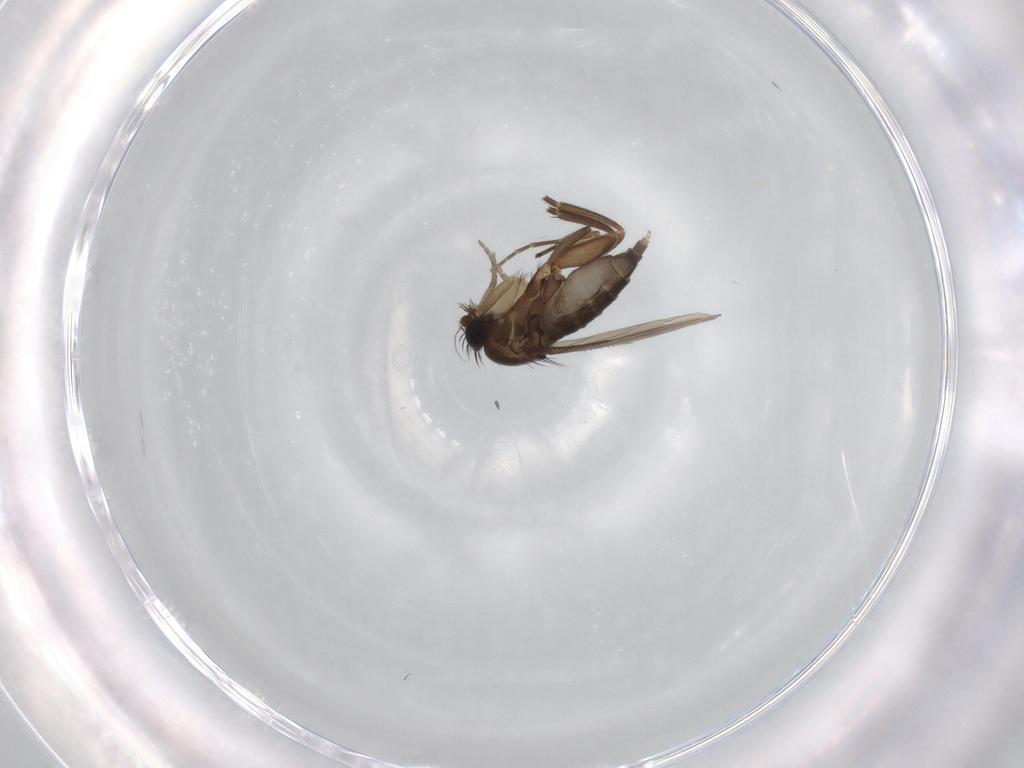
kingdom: Animalia
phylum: Arthropoda
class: Insecta
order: Diptera
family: Phoridae
